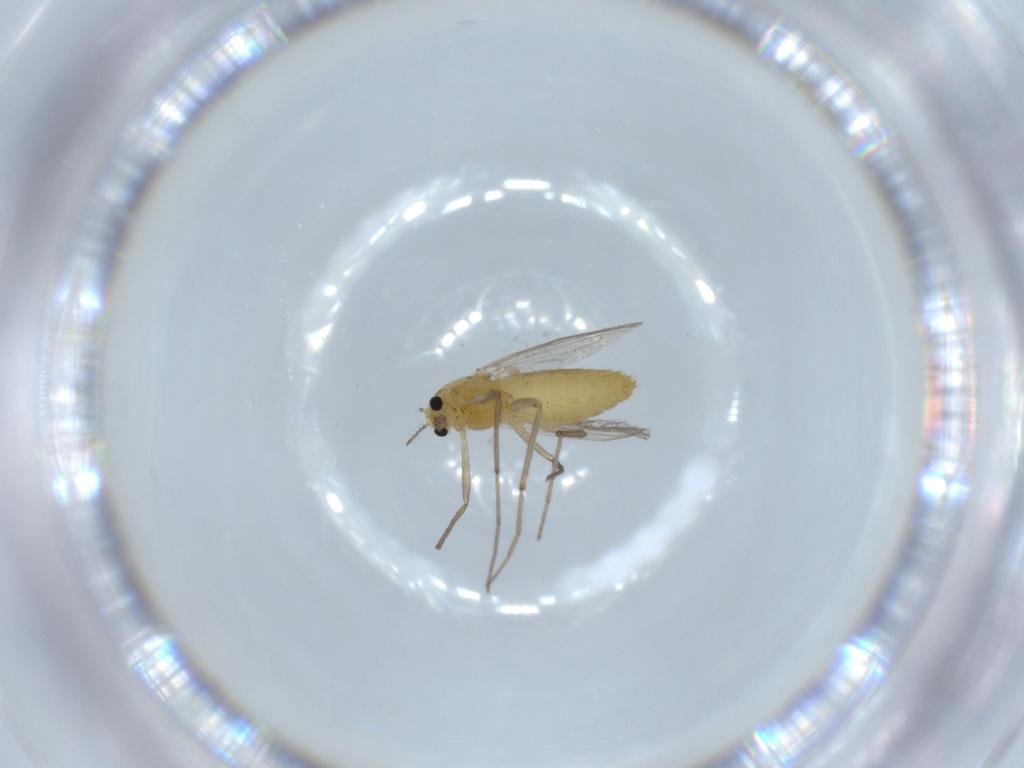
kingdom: Animalia
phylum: Arthropoda
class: Insecta
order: Diptera
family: Chironomidae
